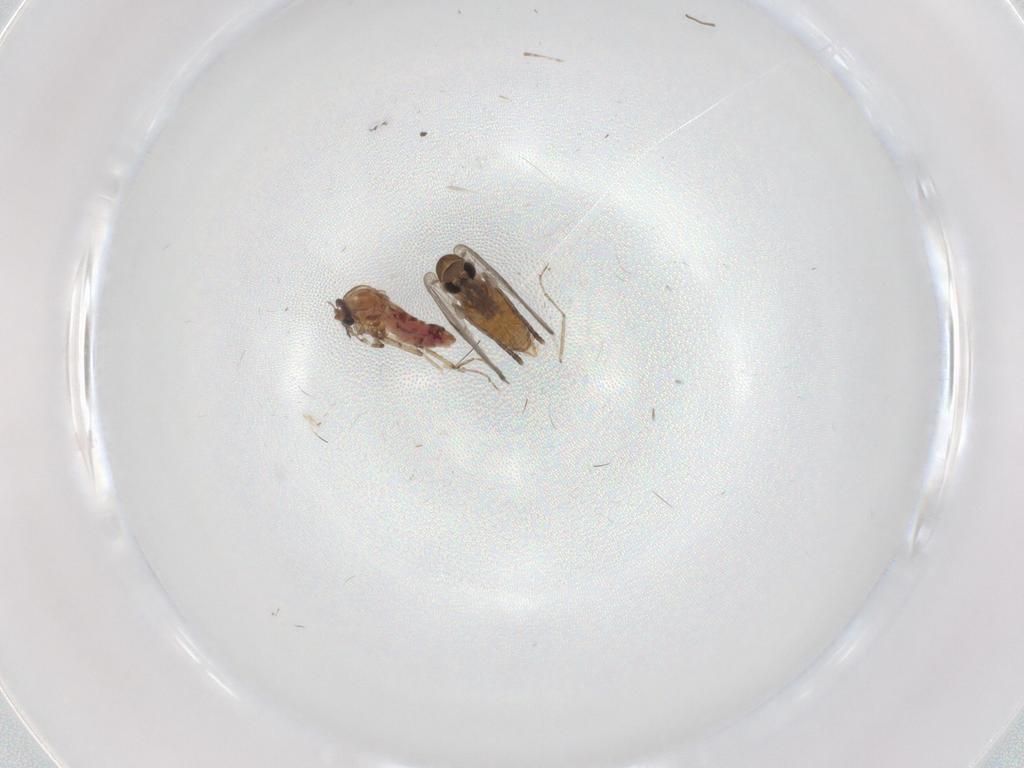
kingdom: Animalia
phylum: Arthropoda
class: Insecta
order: Diptera
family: Ceratopogonidae
